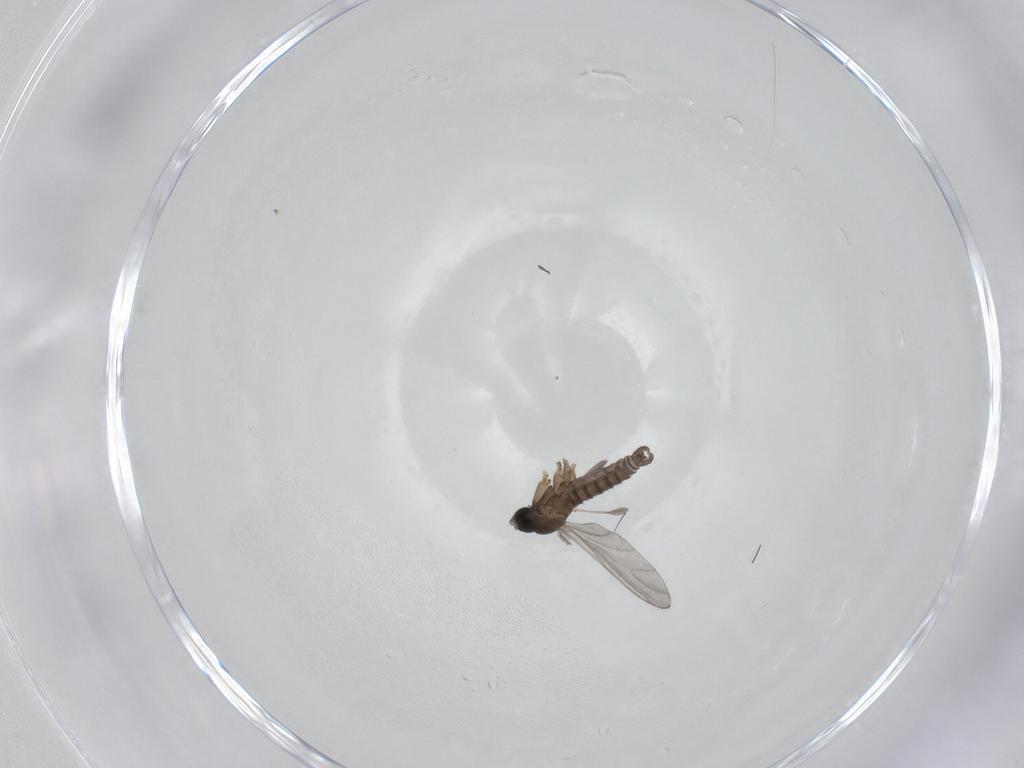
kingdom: Animalia
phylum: Arthropoda
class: Insecta
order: Diptera
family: Sciaridae
